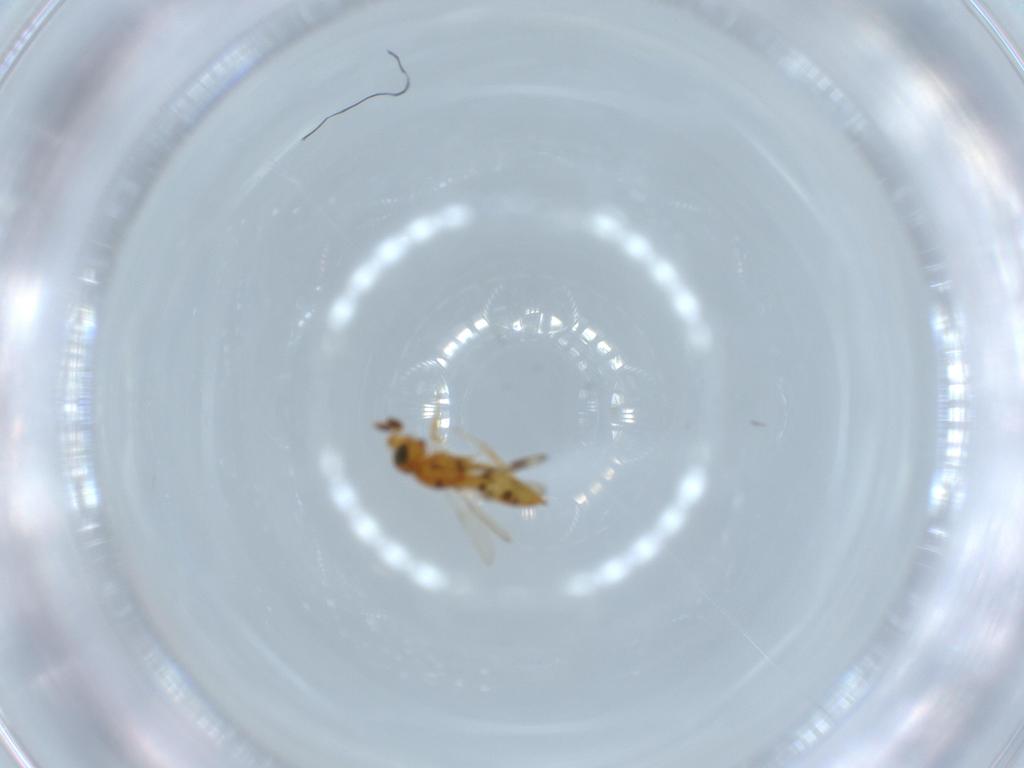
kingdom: Animalia
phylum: Arthropoda
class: Insecta
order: Hymenoptera
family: Scelionidae
